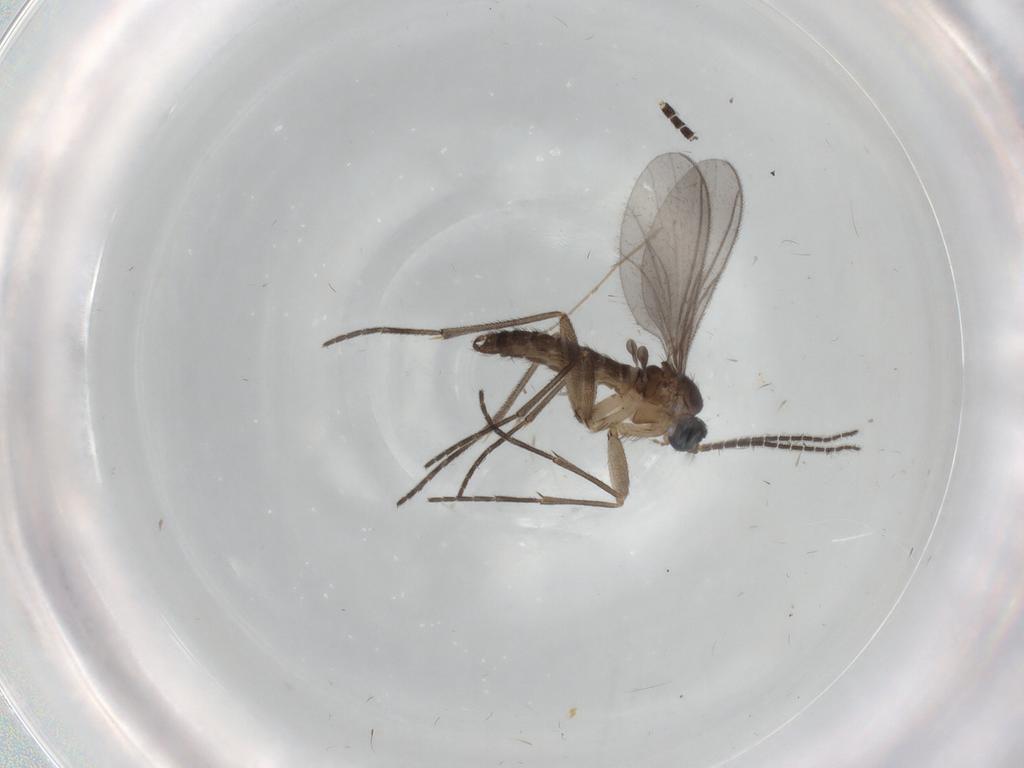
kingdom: Animalia
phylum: Arthropoda
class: Insecta
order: Diptera
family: Sciaridae
